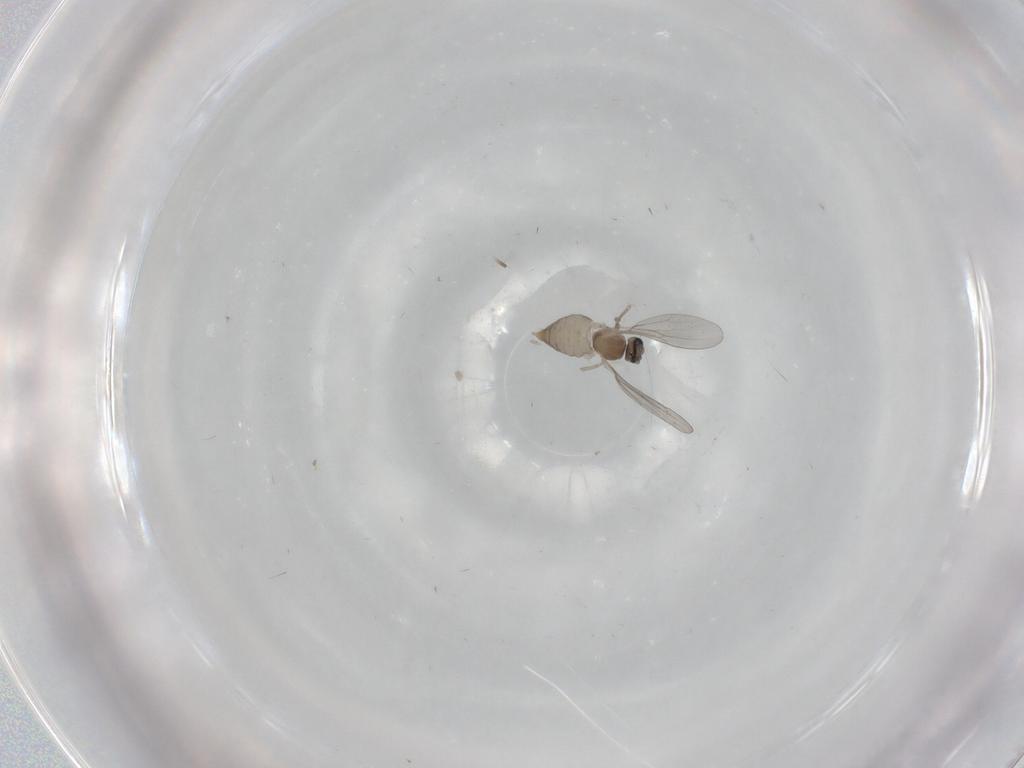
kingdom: Animalia
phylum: Arthropoda
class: Insecta
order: Diptera
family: Cecidomyiidae
